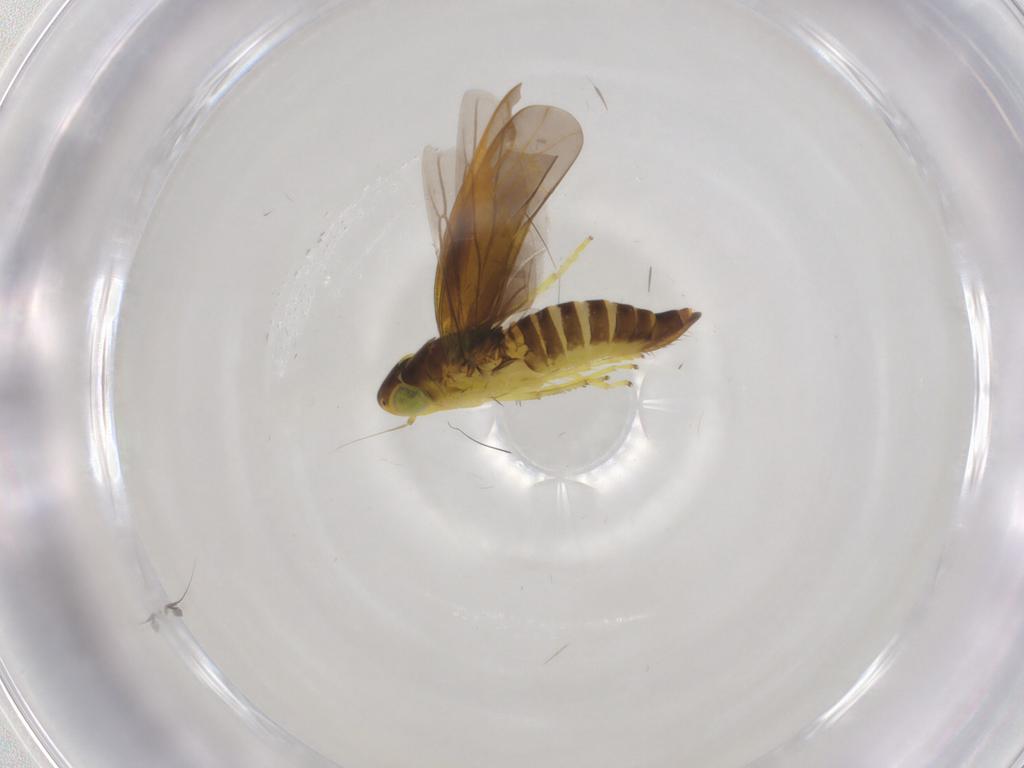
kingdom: Animalia
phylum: Arthropoda
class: Insecta
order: Hemiptera
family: Cicadellidae
